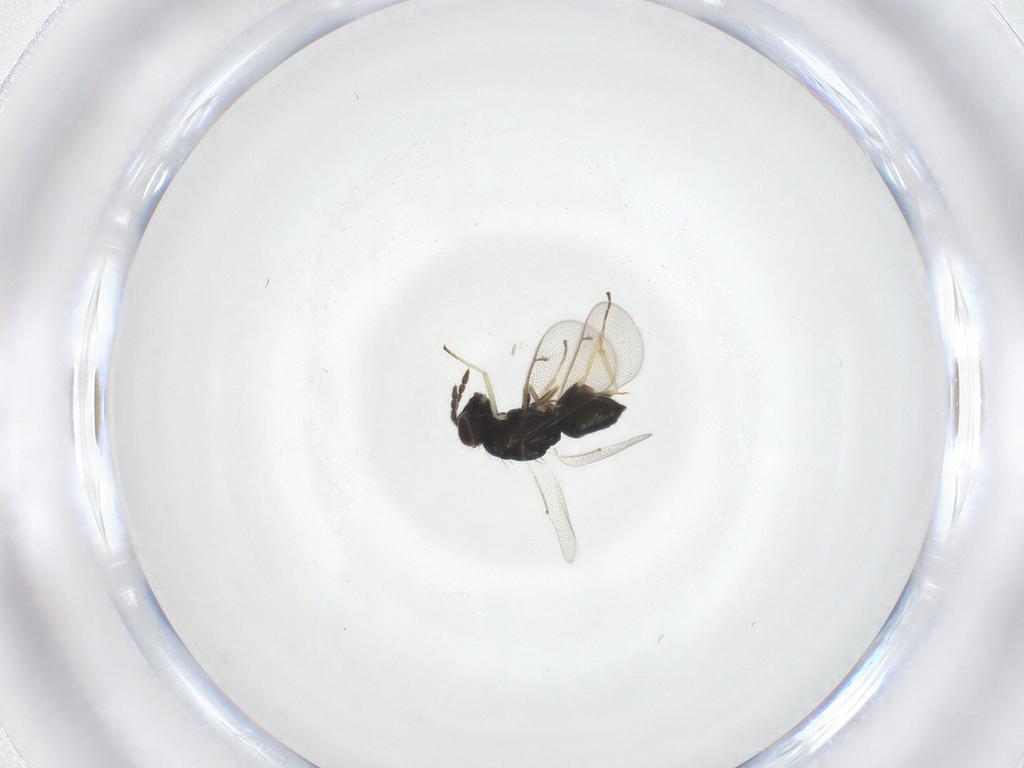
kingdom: Animalia
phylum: Arthropoda
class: Insecta
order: Hymenoptera
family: Eulophidae
